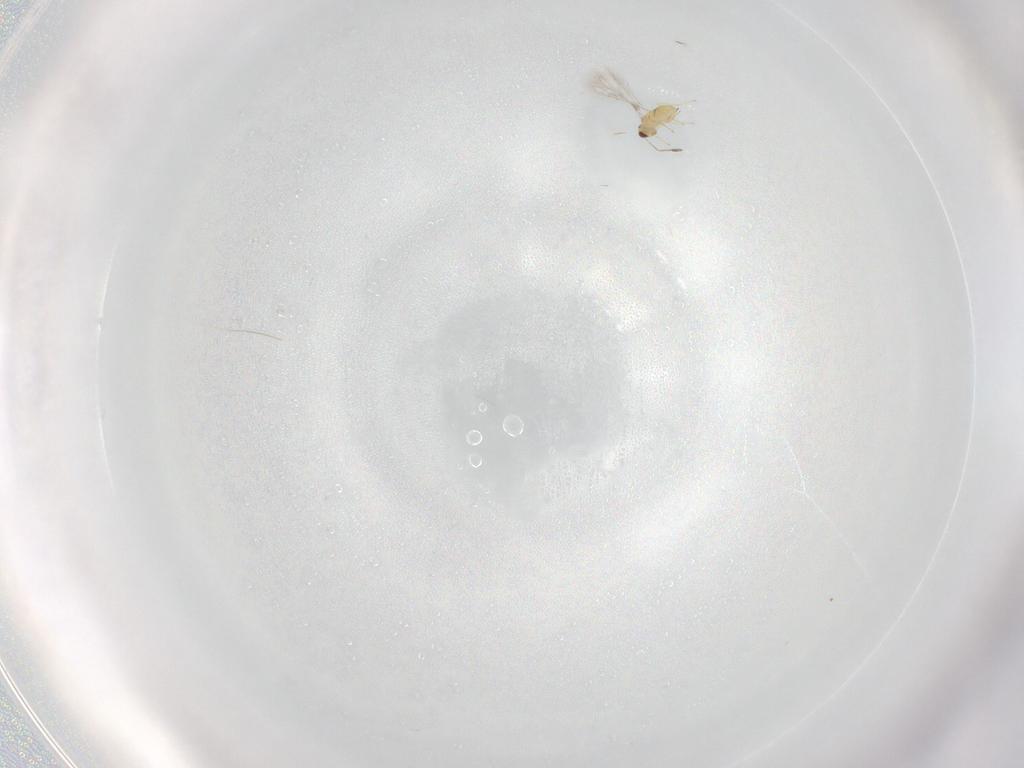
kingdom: Animalia
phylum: Arthropoda
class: Insecta
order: Hymenoptera
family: Mymaridae
